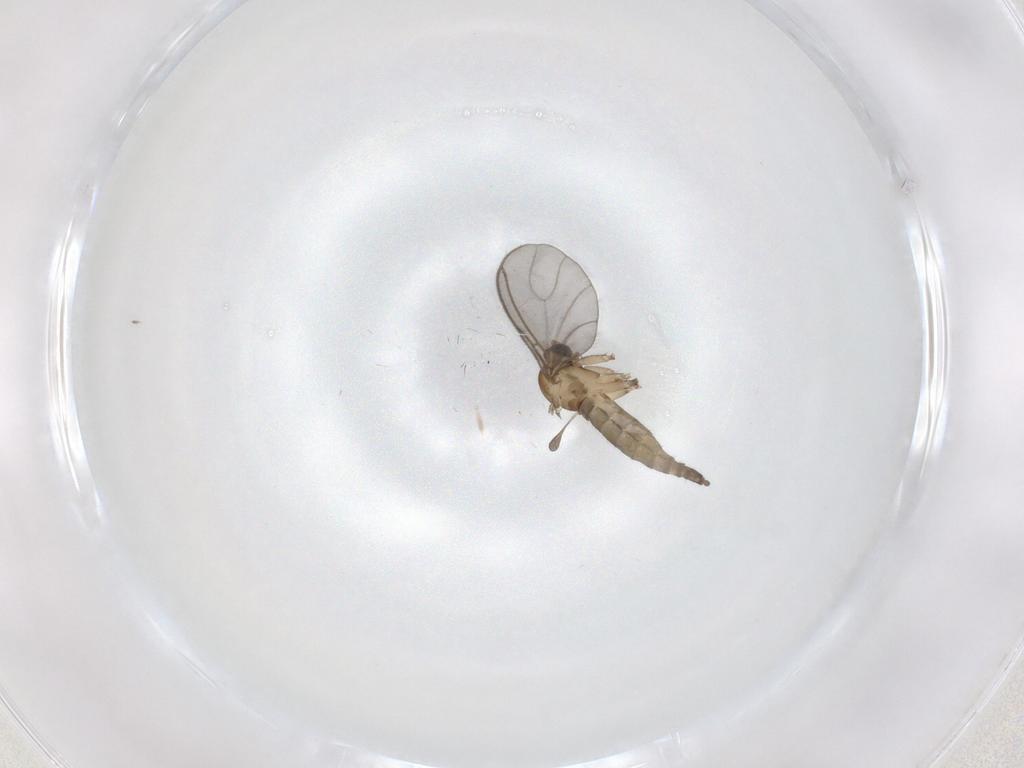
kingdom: Animalia
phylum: Arthropoda
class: Insecta
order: Diptera
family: Sciaridae
